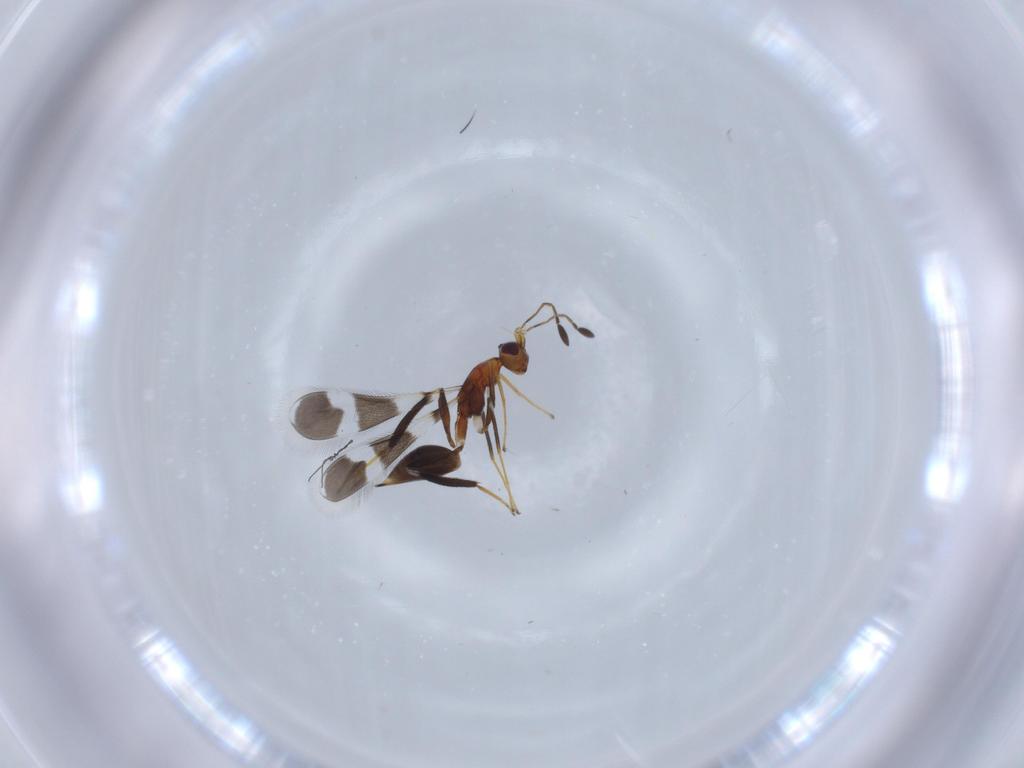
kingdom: Animalia
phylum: Arthropoda
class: Insecta
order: Hymenoptera
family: Mymaridae
